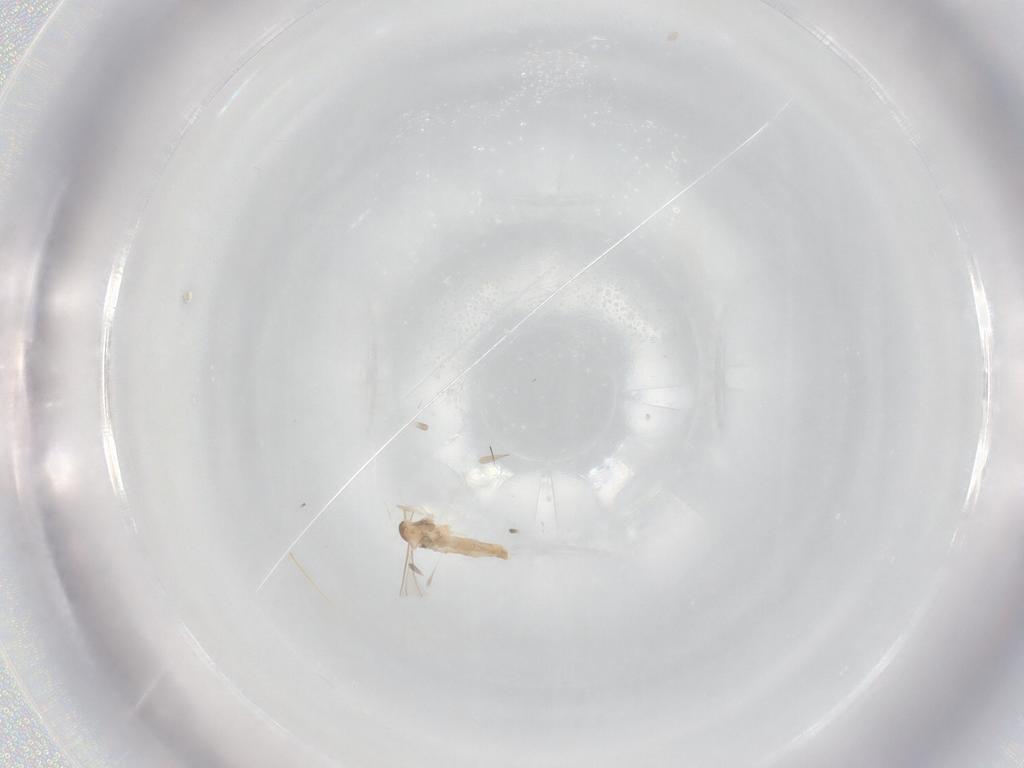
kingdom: Animalia
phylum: Arthropoda
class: Insecta
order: Diptera
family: Cecidomyiidae
